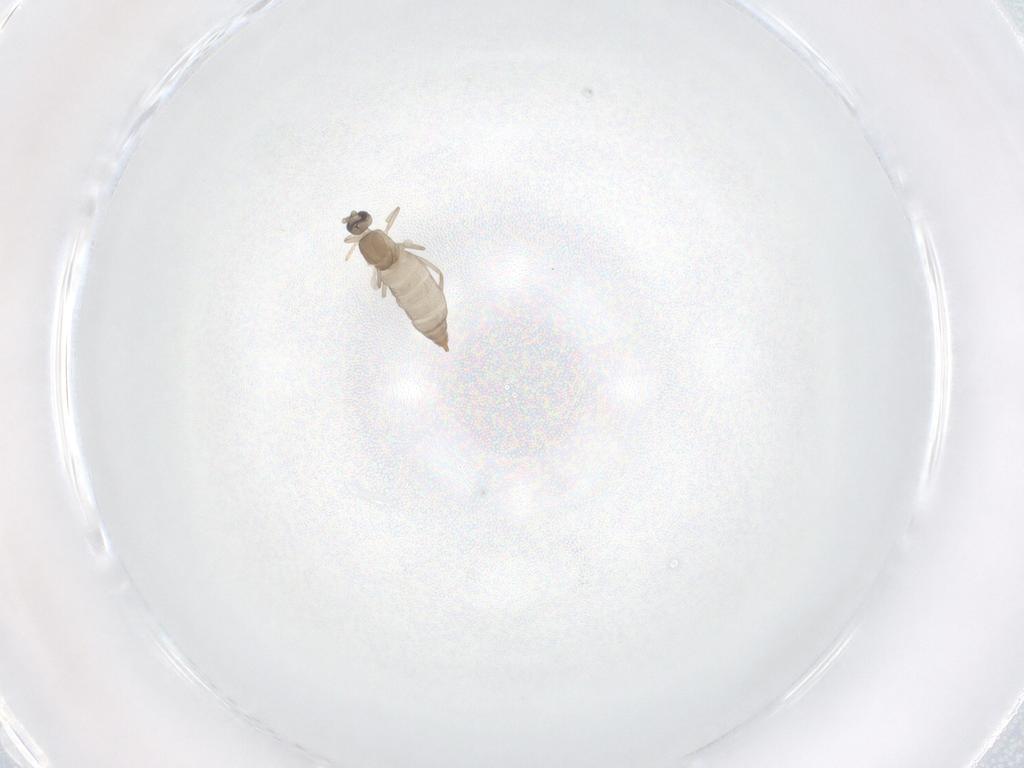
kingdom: Animalia
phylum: Arthropoda
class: Insecta
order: Diptera
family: Cecidomyiidae
